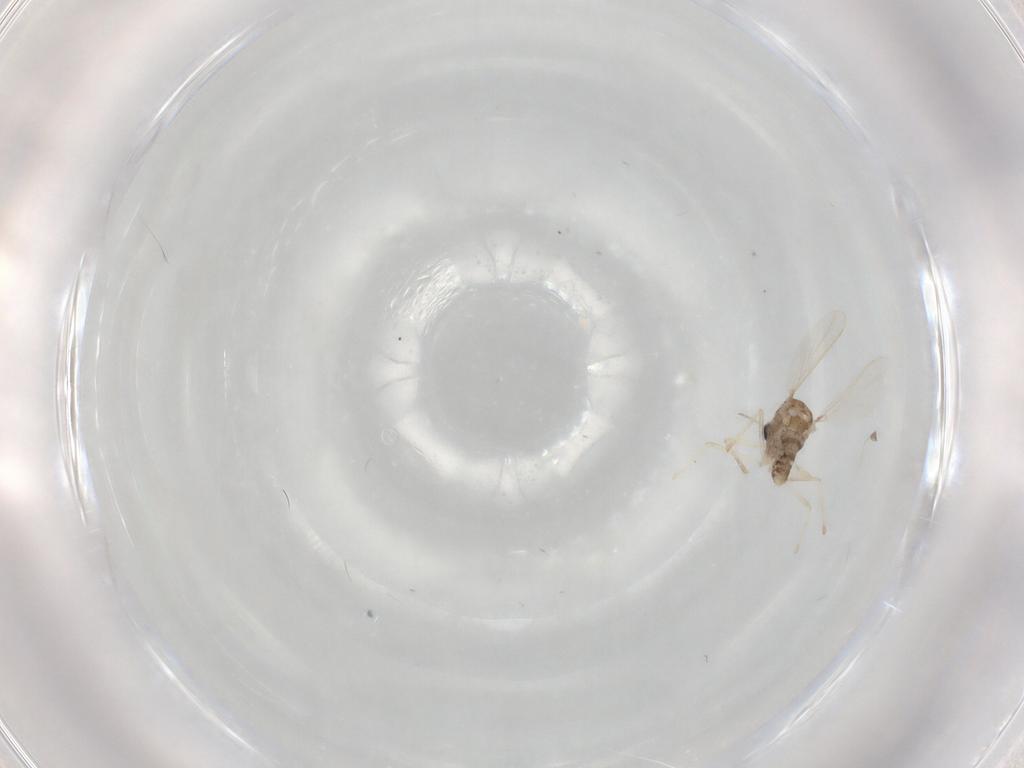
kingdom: Animalia
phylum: Arthropoda
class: Insecta
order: Diptera
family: Chironomidae
